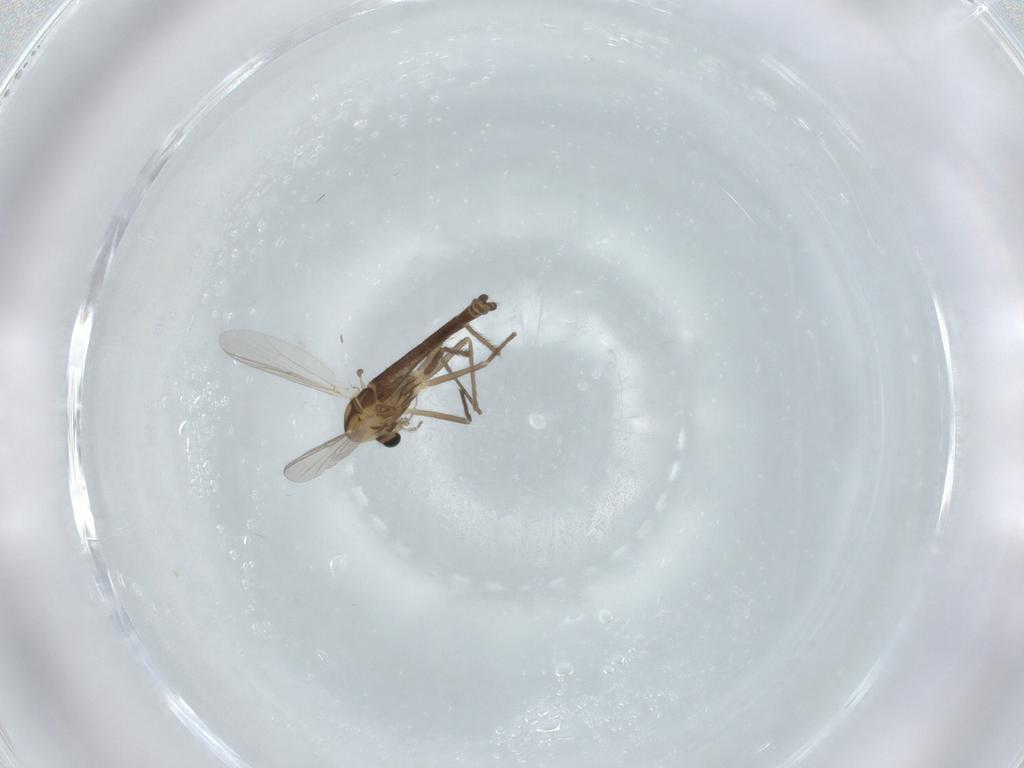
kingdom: Animalia
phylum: Arthropoda
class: Insecta
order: Diptera
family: Chironomidae
